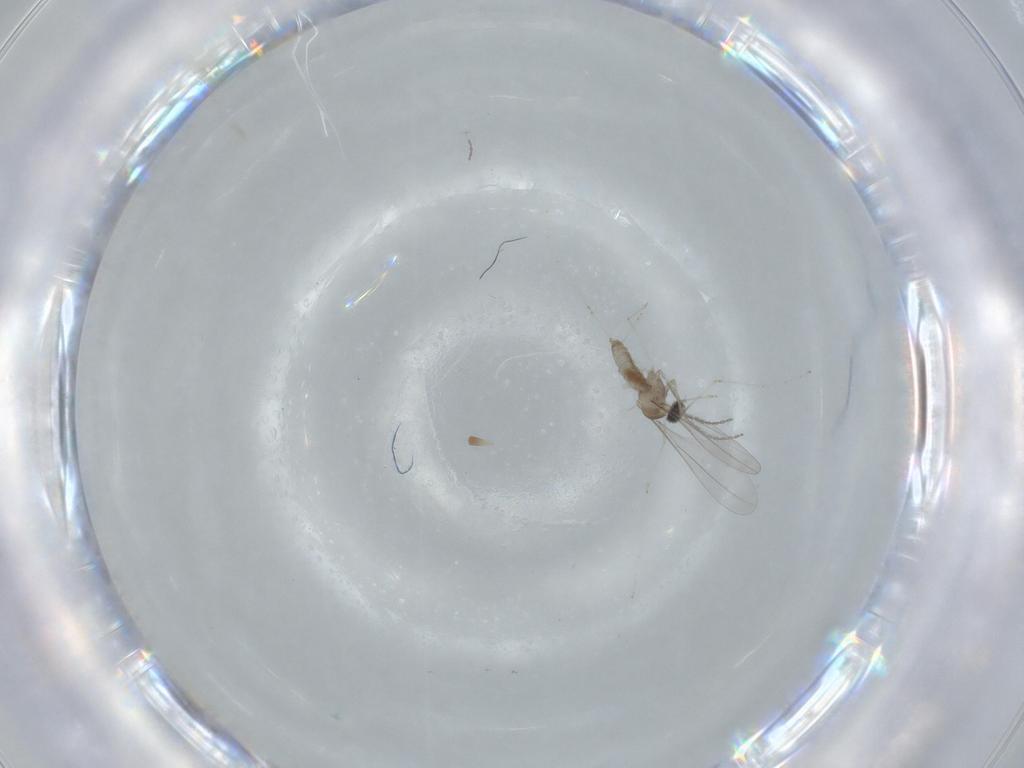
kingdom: Animalia
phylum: Arthropoda
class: Insecta
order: Diptera
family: Cecidomyiidae
